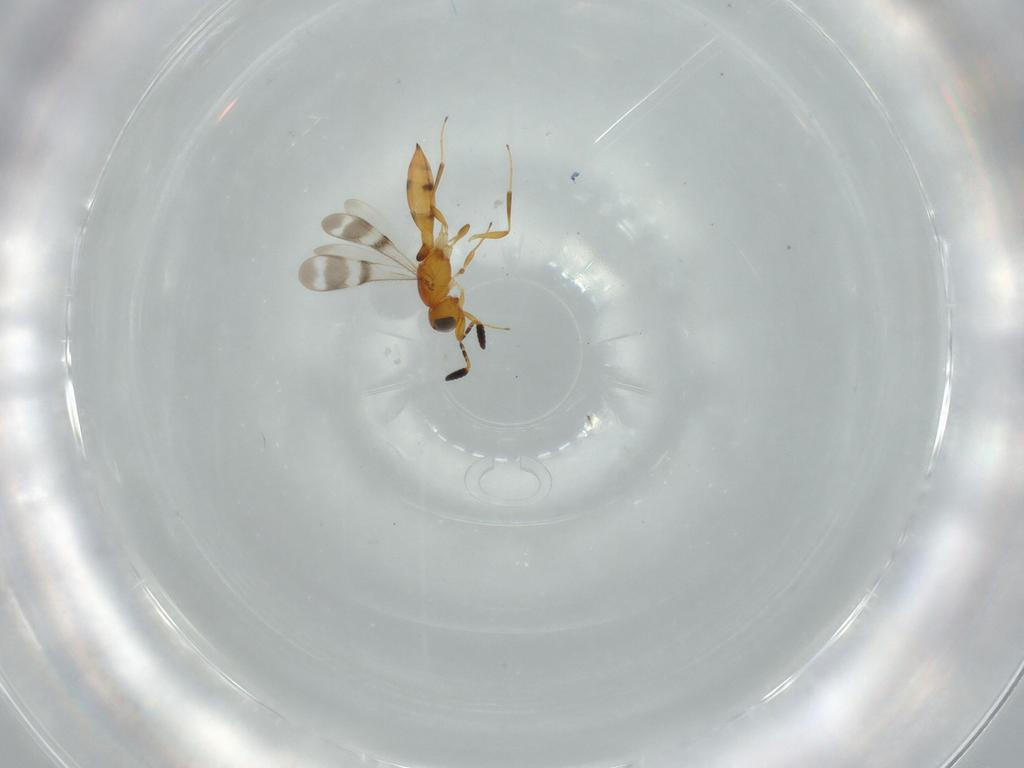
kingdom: Animalia
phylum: Arthropoda
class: Insecta
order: Hymenoptera
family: Scelionidae
